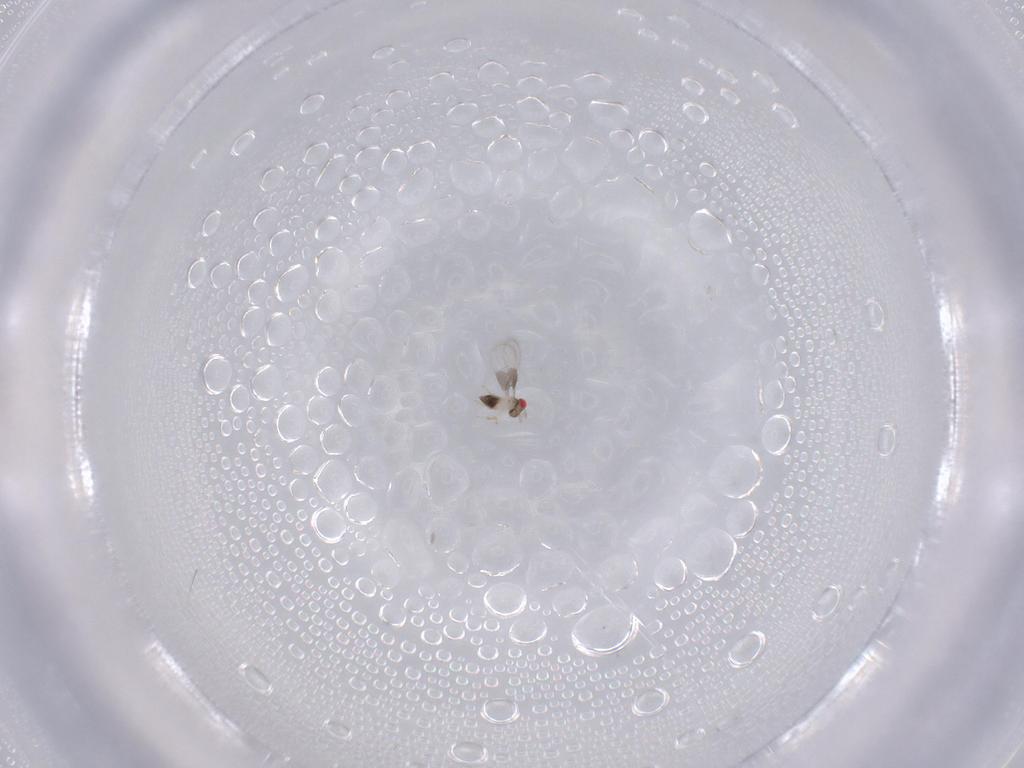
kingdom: Animalia
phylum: Arthropoda
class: Insecta
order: Hymenoptera
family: Trichogrammatidae
